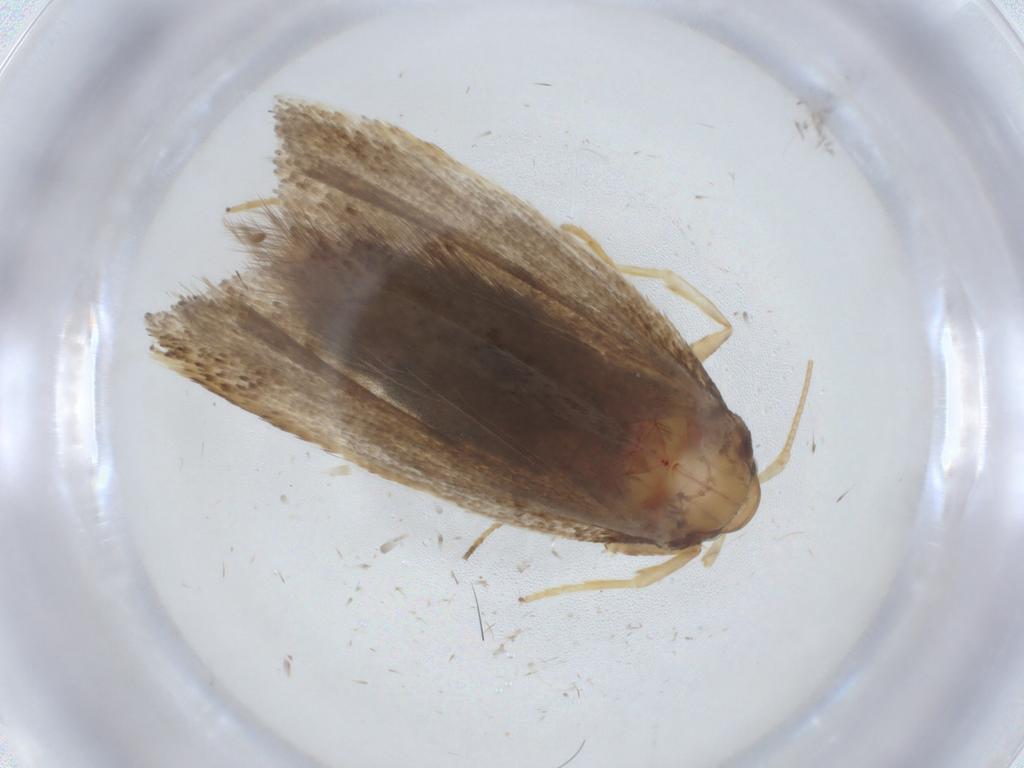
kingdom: Animalia
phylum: Arthropoda
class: Insecta
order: Lepidoptera
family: Lecithoceridae
